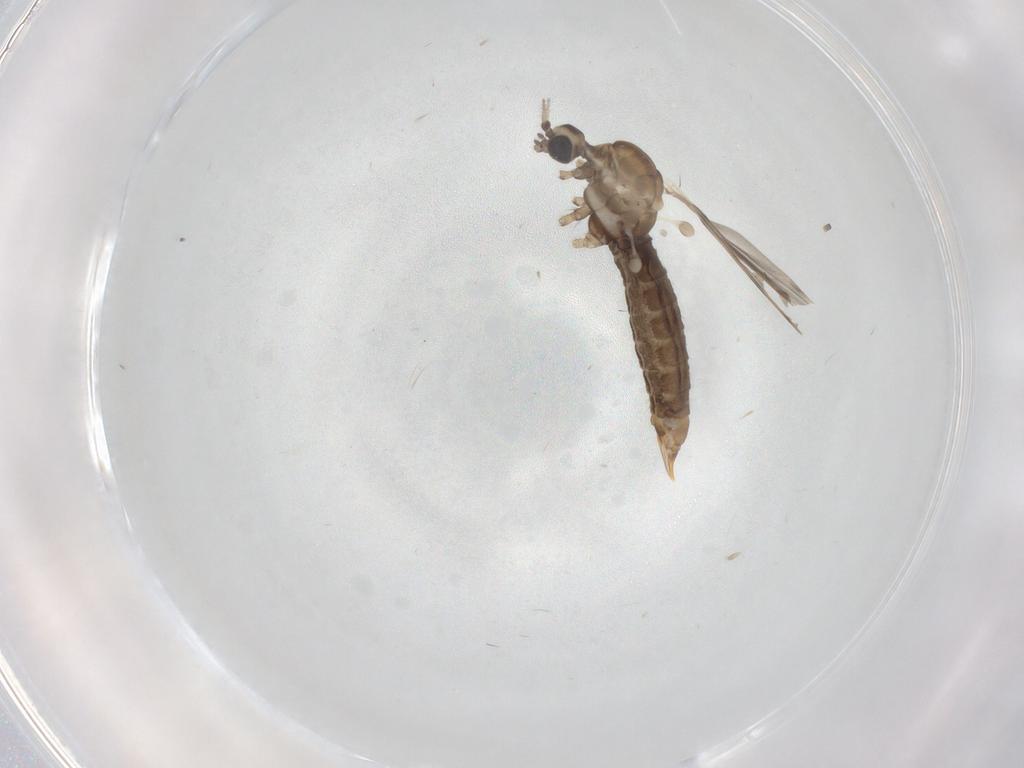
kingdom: Animalia
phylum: Arthropoda
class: Insecta
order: Diptera
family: Limoniidae
